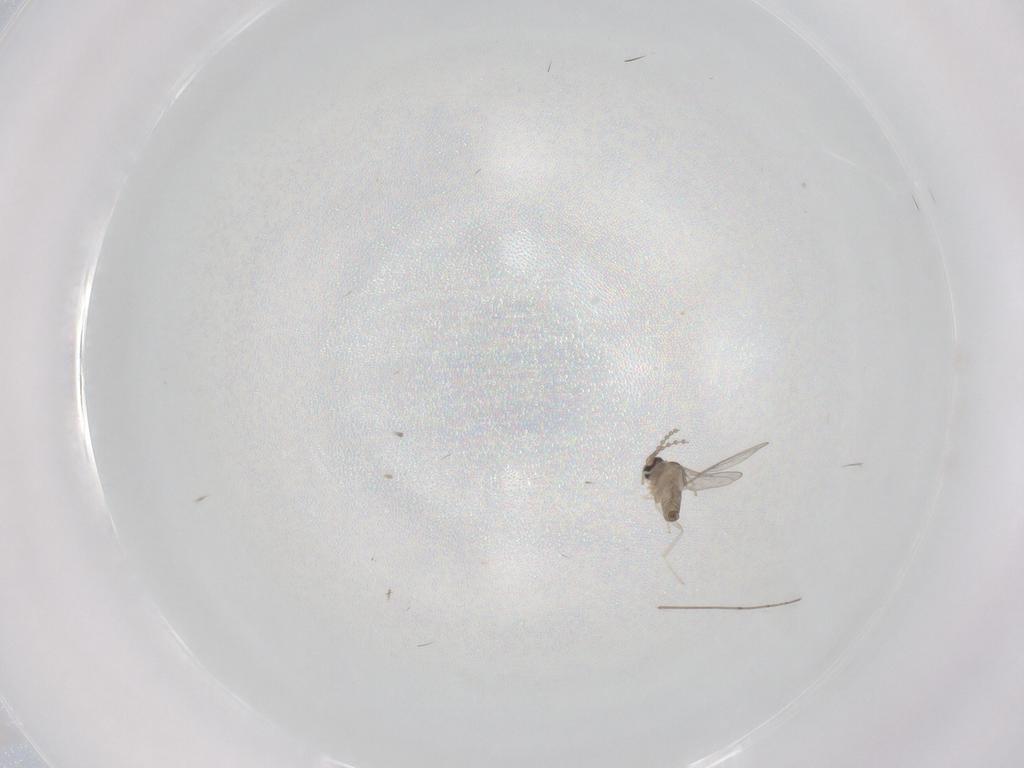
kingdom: Animalia
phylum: Arthropoda
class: Insecta
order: Diptera
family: Cecidomyiidae
